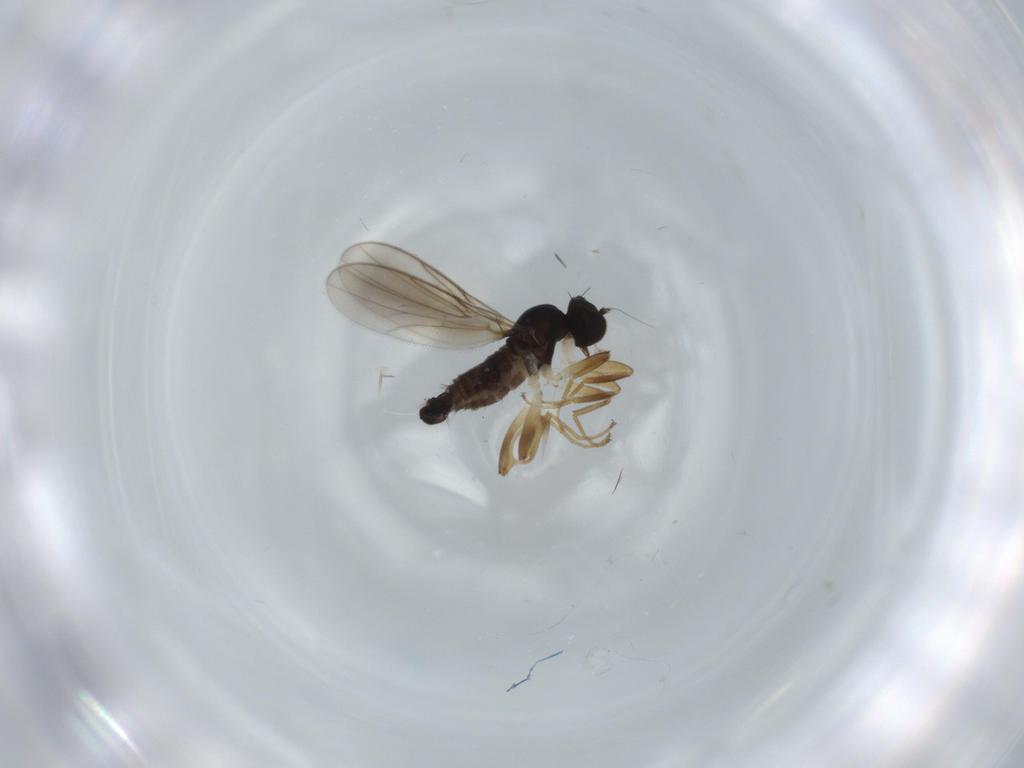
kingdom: Animalia
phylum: Arthropoda
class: Insecta
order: Diptera
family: Hybotidae
